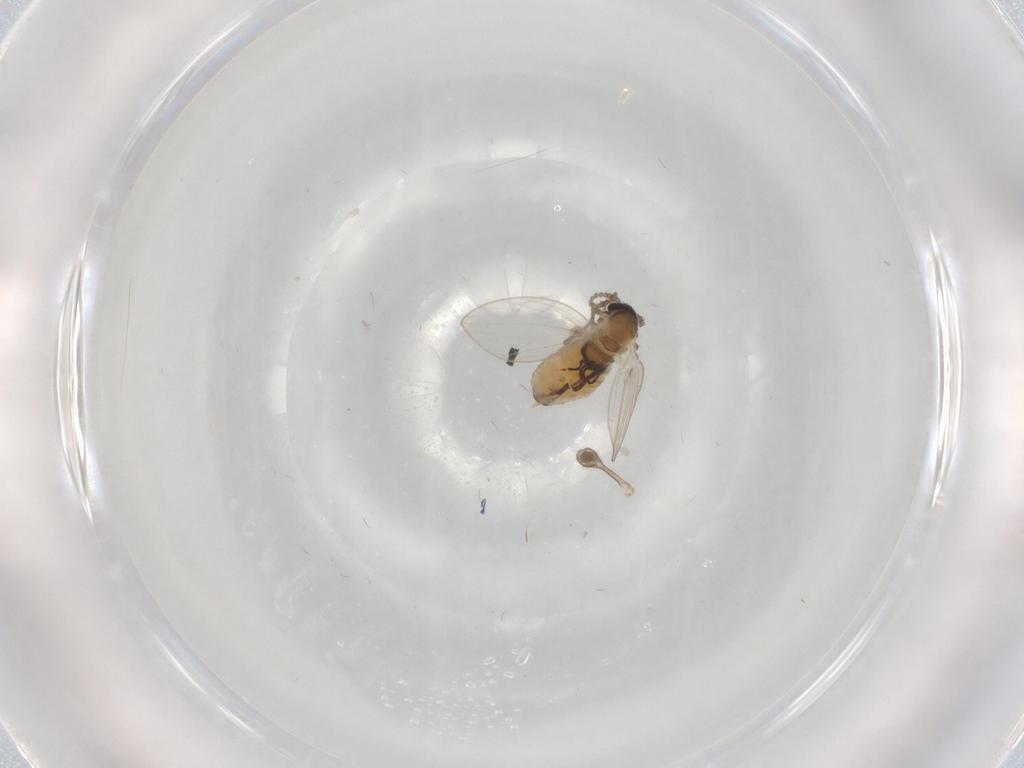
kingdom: Animalia
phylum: Arthropoda
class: Insecta
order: Diptera
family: Psychodidae
